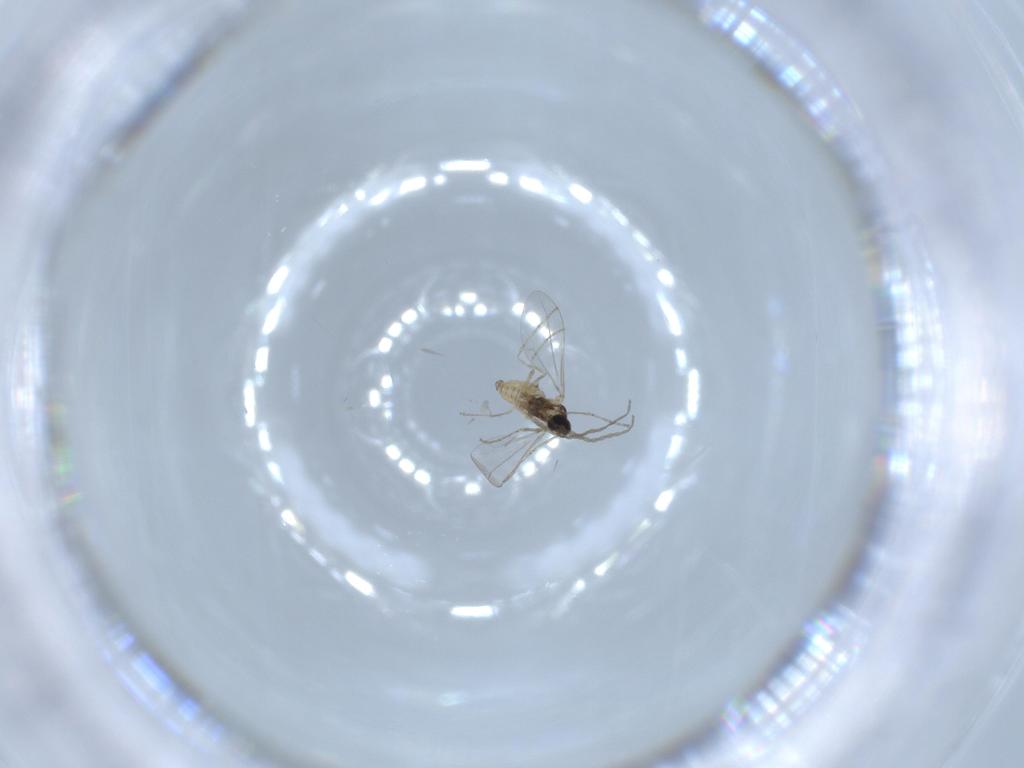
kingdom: Animalia
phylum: Arthropoda
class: Insecta
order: Diptera
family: Cecidomyiidae
